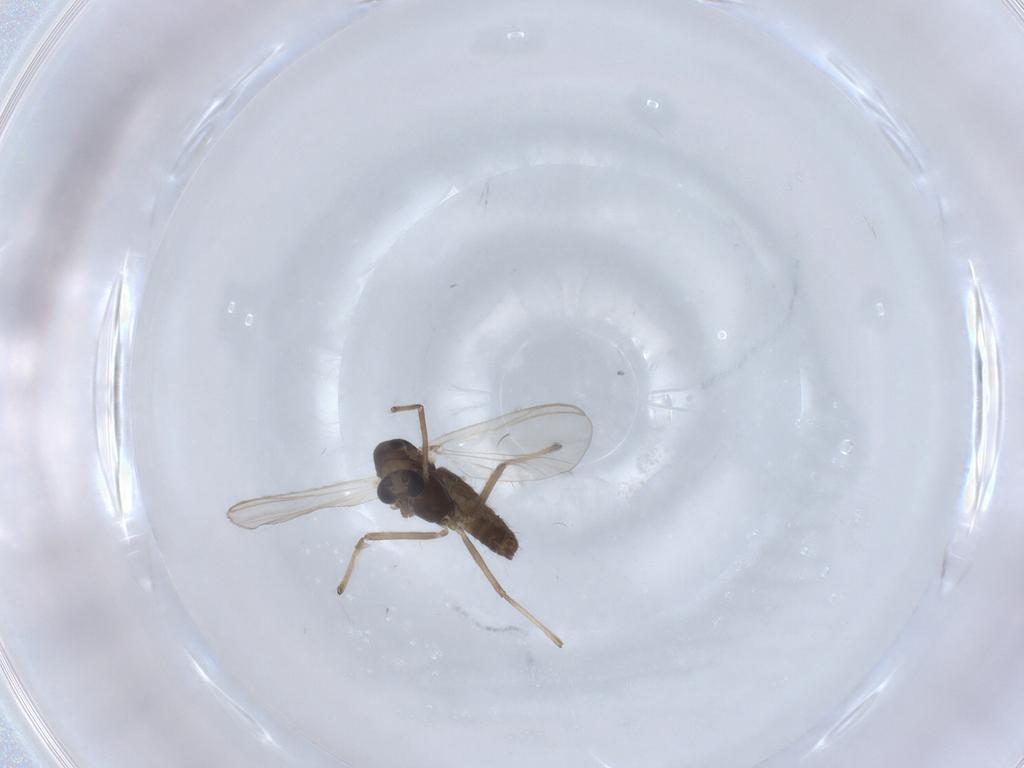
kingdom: Animalia
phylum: Arthropoda
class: Insecta
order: Diptera
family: Chironomidae
